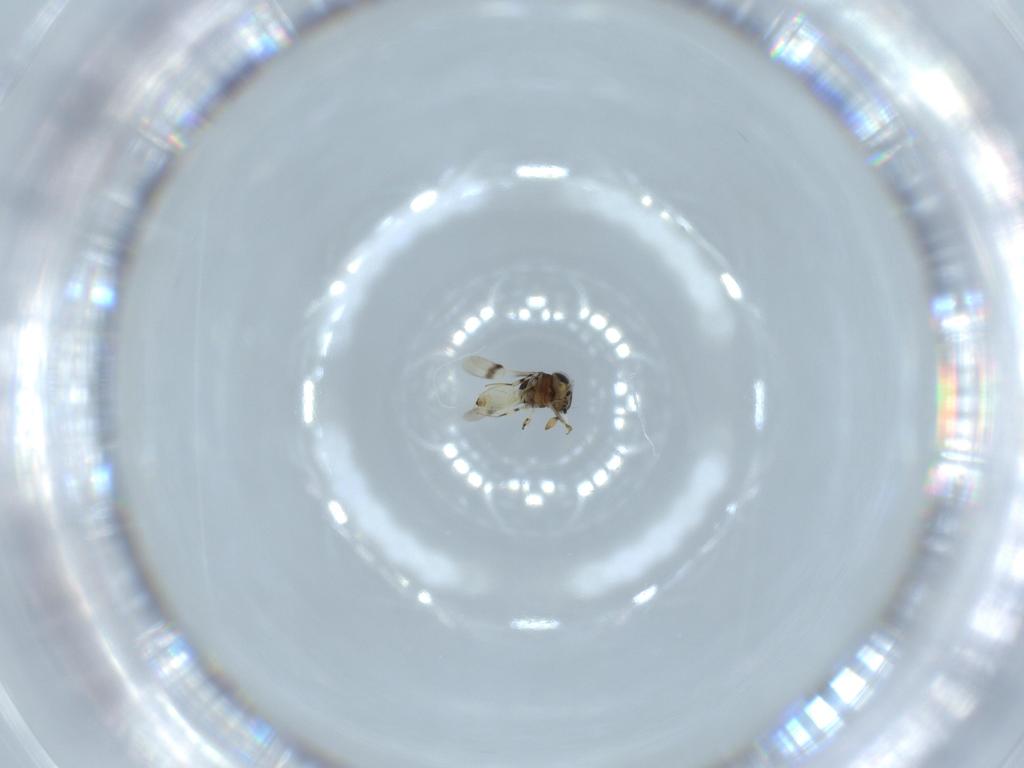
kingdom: Animalia
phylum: Arthropoda
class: Insecta
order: Hymenoptera
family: Scelionidae
